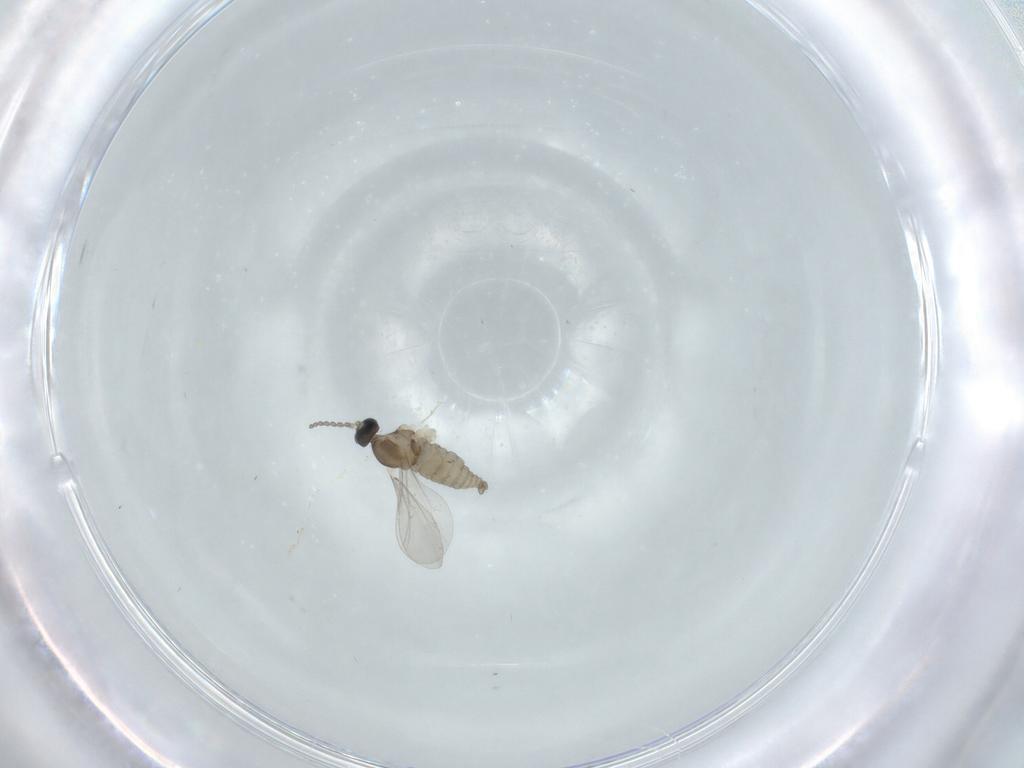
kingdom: Animalia
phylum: Arthropoda
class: Insecta
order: Diptera
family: Cecidomyiidae
